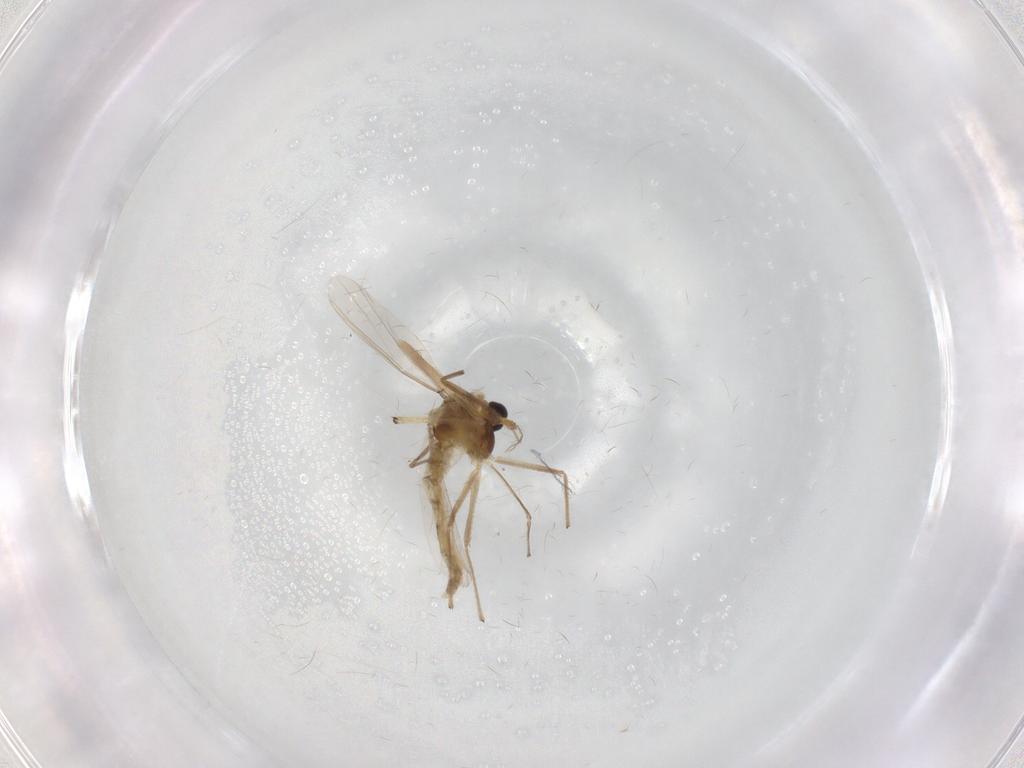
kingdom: Animalia
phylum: Arthropoda
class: Insecta
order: Diptera
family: Chironomidae
